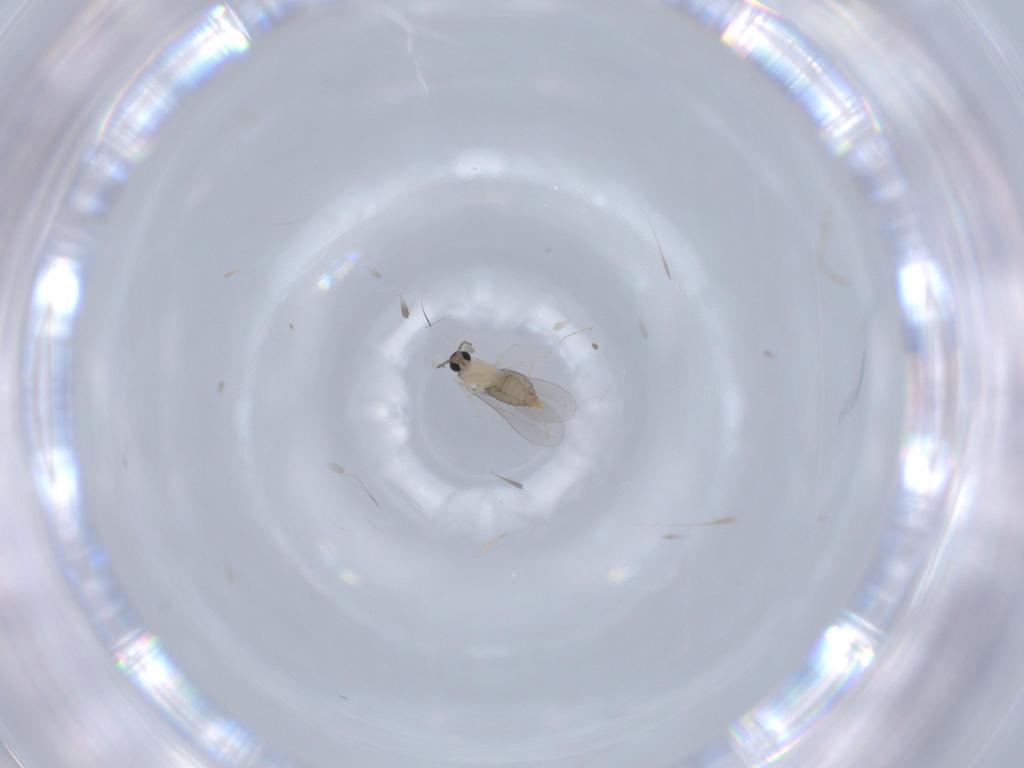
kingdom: Animalia
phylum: Arthropoda
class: Insecta
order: Diptera
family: Cecidomyiidae
